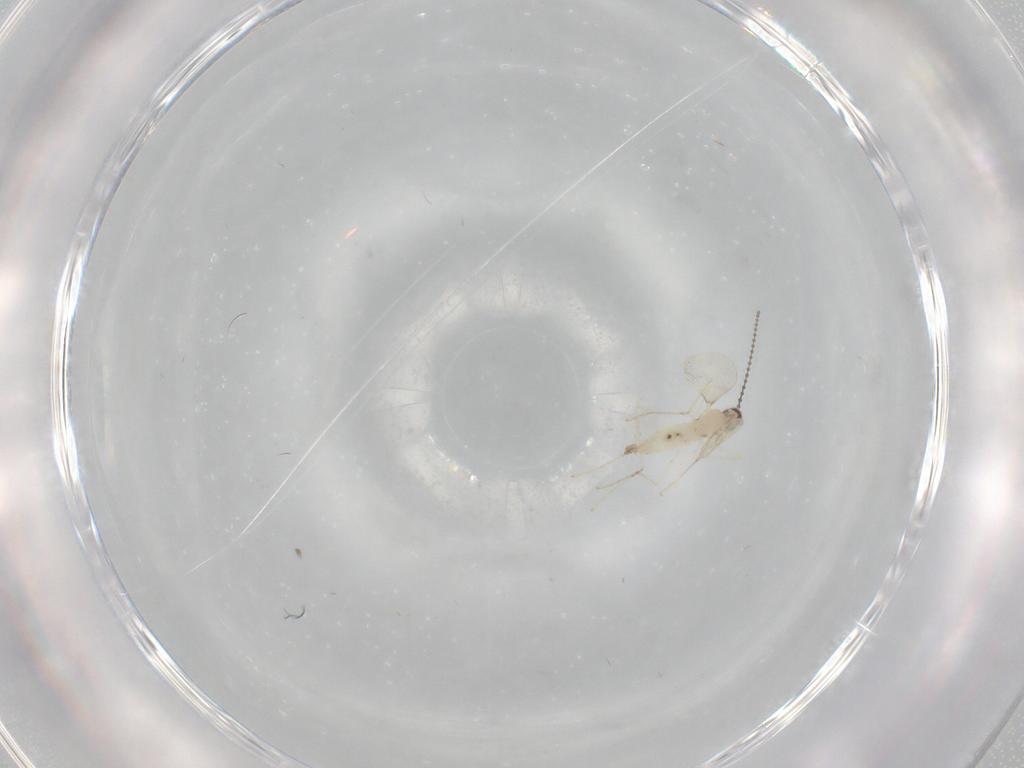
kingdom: Animalia
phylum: Arthropoda
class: Insecta
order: Diptera
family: Cecidomyiidae
